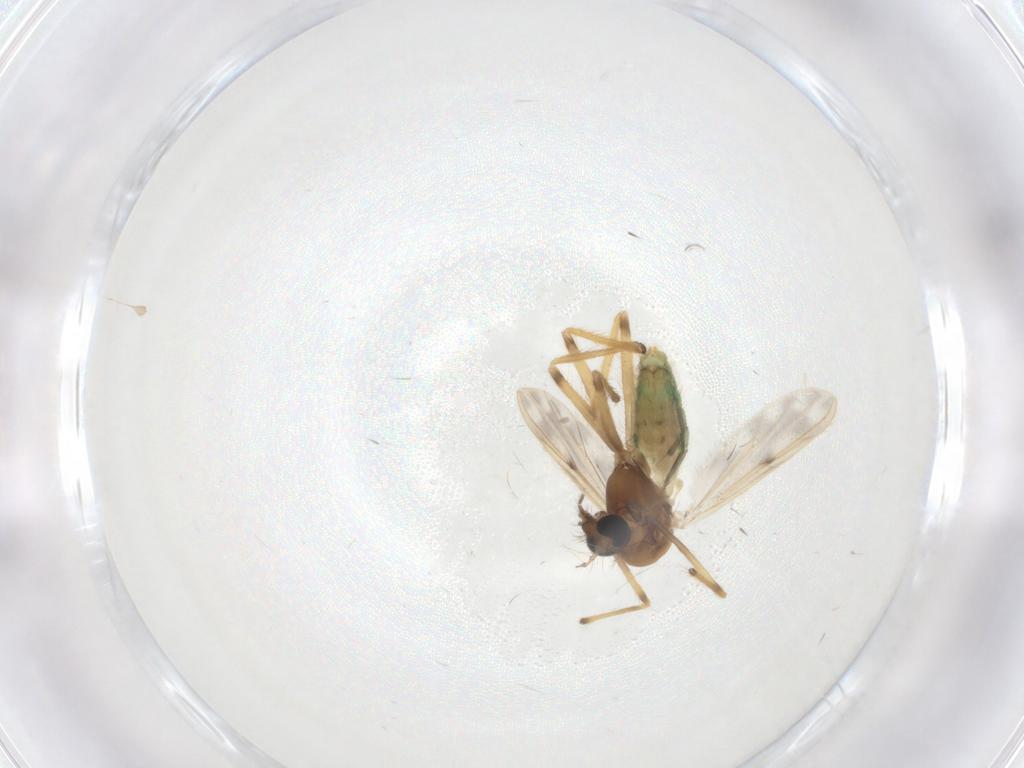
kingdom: Animalia
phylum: Arthropoda
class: Insecta
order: Diptera
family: Chironomidae
